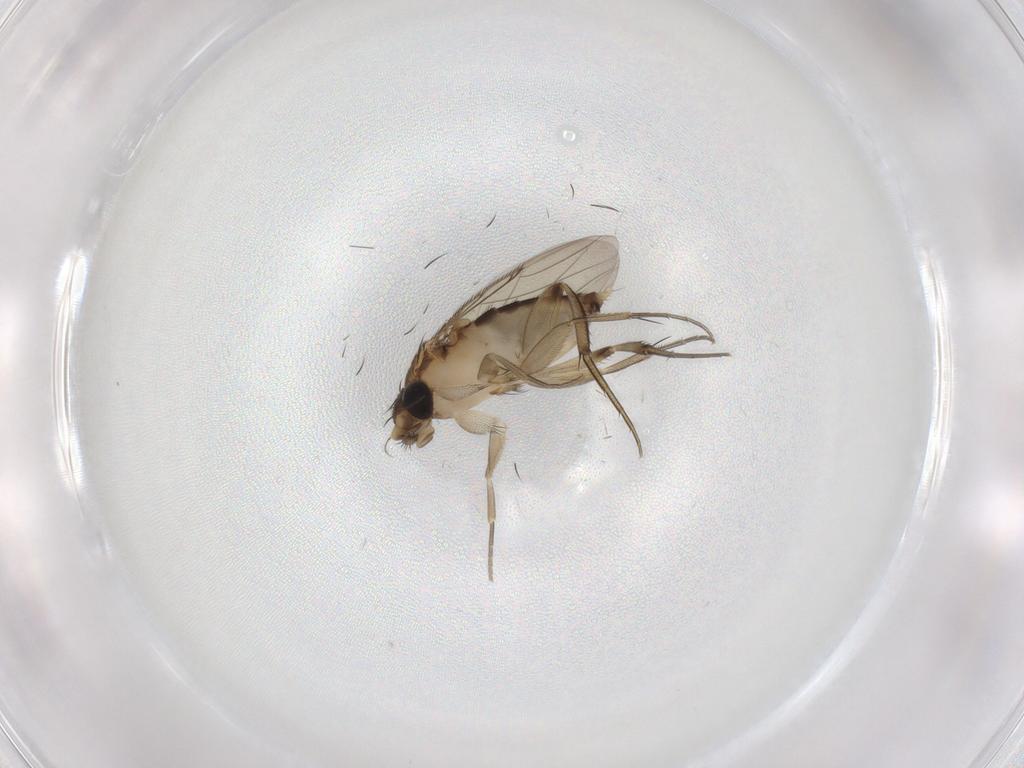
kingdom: Animalia
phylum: Arthropoda
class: Insecta
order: Diptera
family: Phoridae
